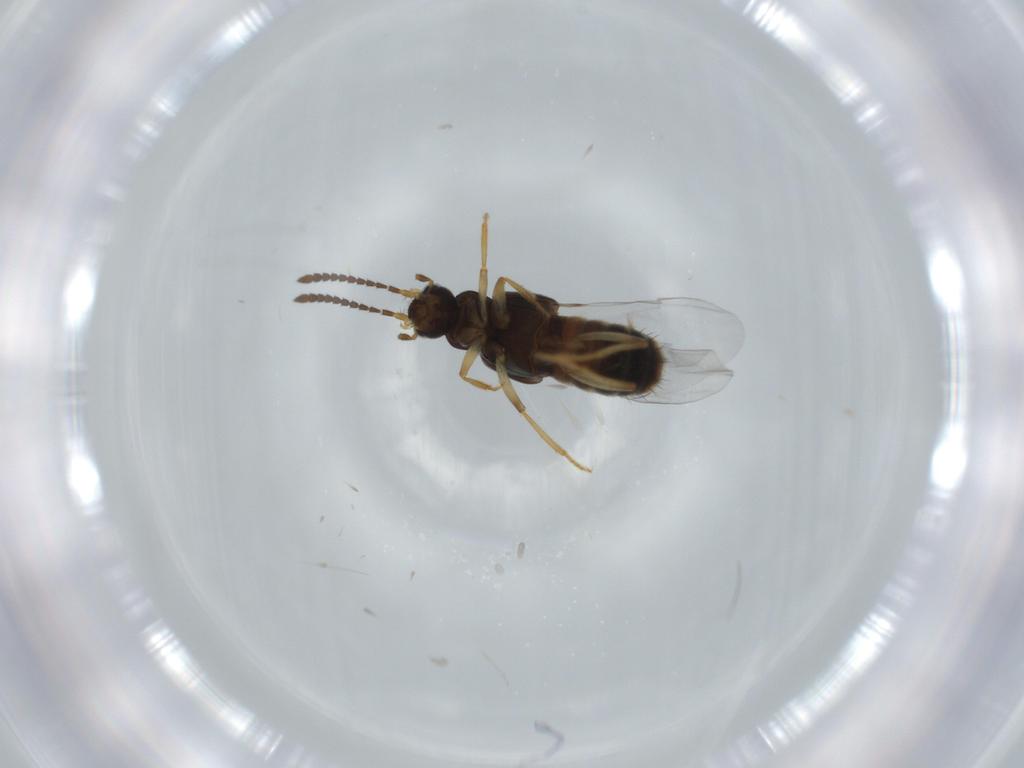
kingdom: Animalia
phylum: Arthropoda
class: Insecta
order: Coleoptera
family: Staphylinidae
